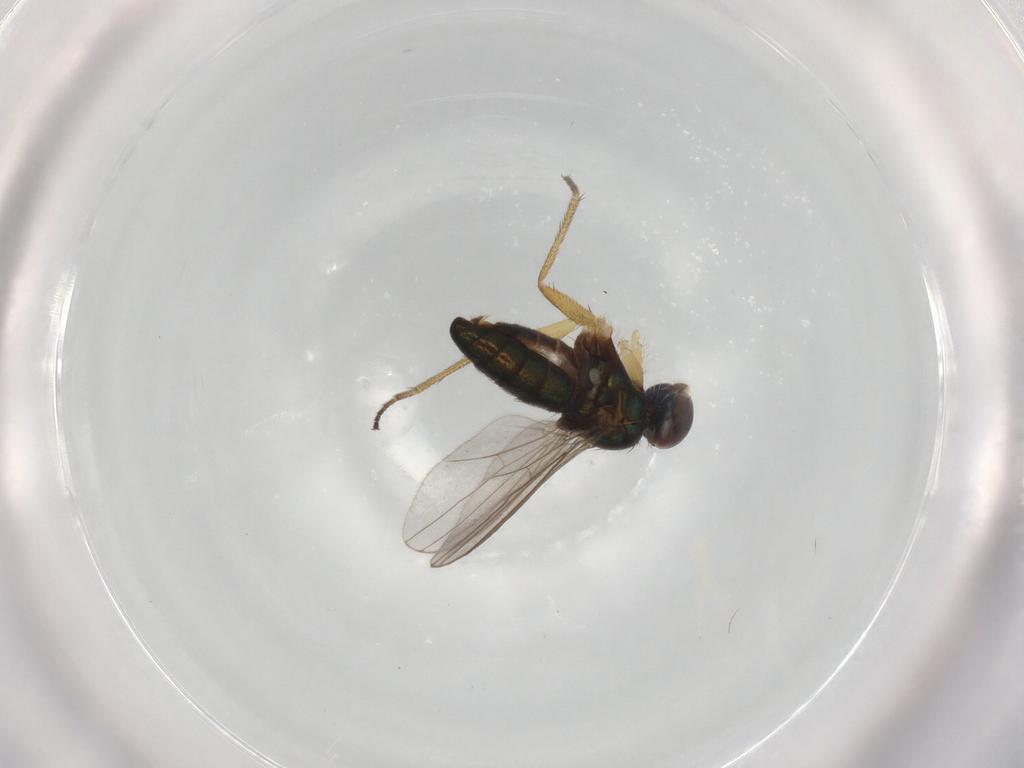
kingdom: Animalia
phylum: Arthropoda
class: Insecta
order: Diptera
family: Dolichopodidae
